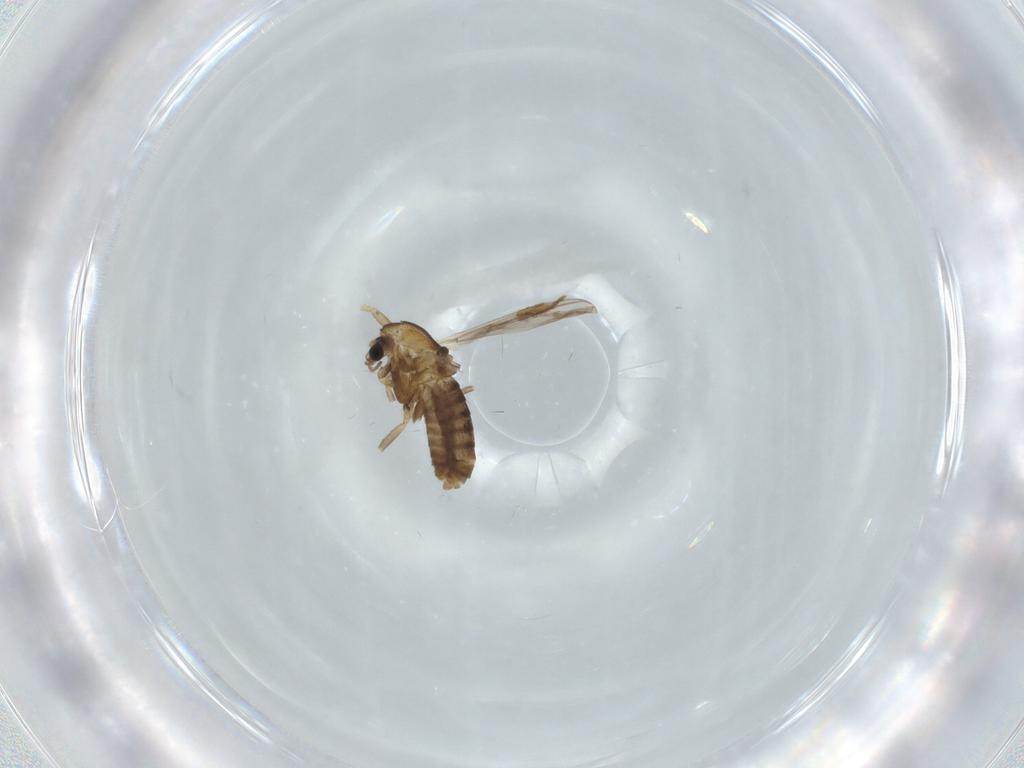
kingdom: Animalia
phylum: Arthropoda
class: Insecta
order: Diptera
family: Chironomidae
